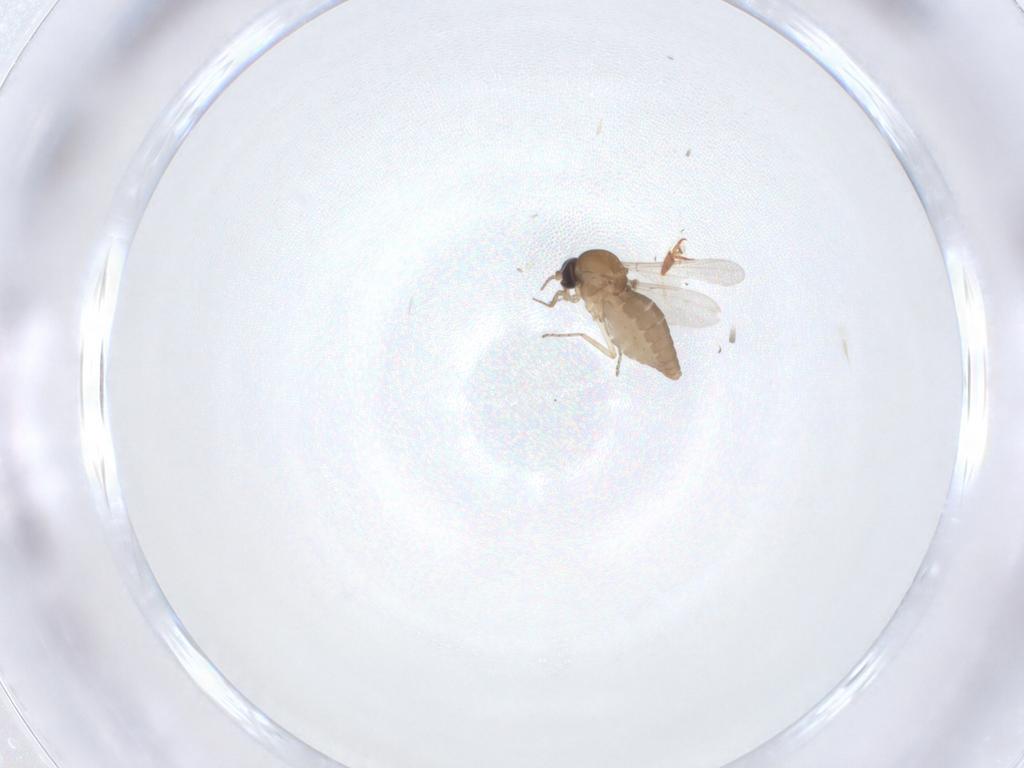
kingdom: Animalia
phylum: Arthropoda
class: Insecta
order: Diptera
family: Ceratopogonidae
